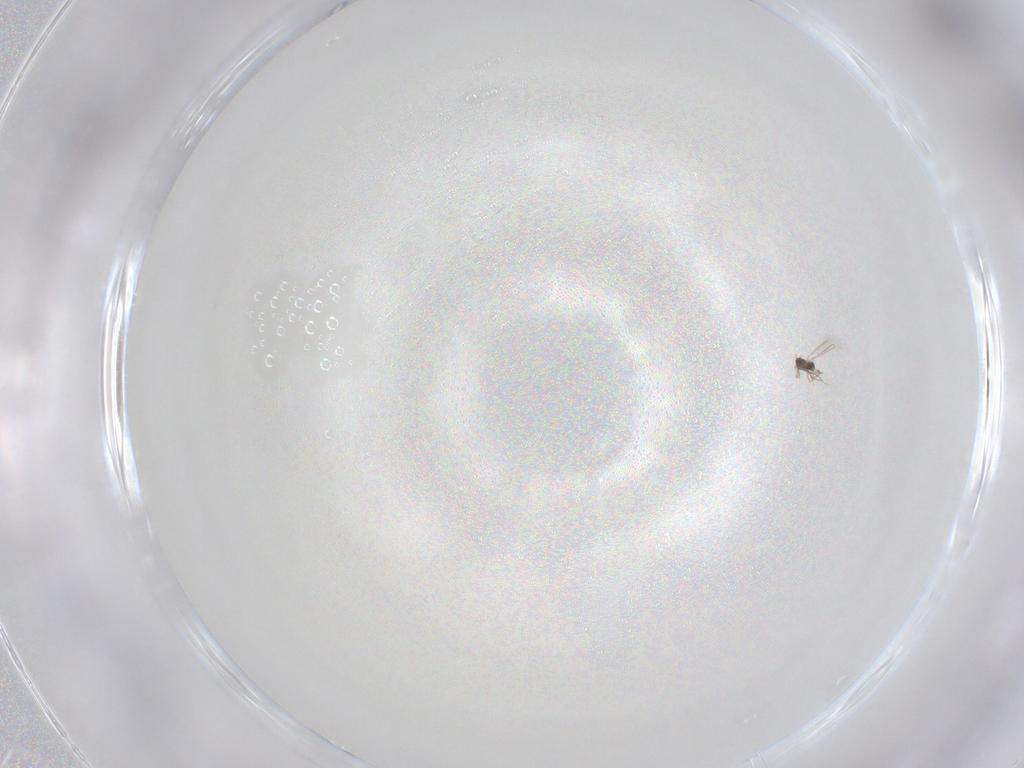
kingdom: Animalia
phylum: Arthropoda
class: Insecta
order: Hymenoptera
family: Mymaridae
